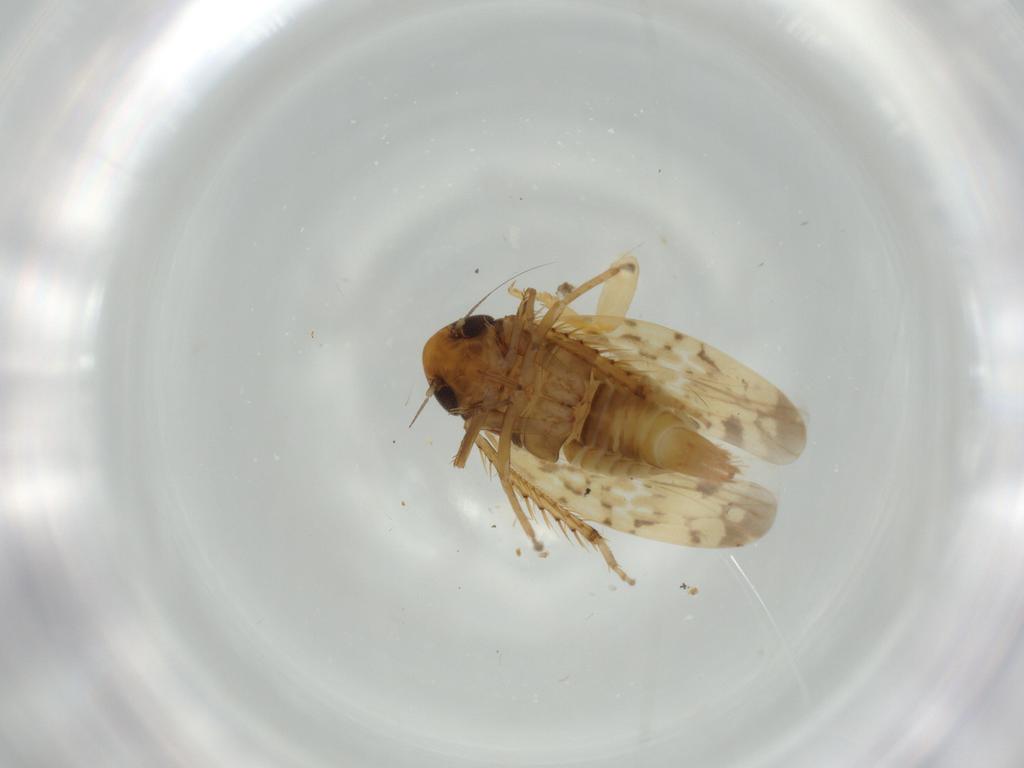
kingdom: Animalia
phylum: Arthropoda
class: Insecta
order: Hemiptera
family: Cicadellidae
